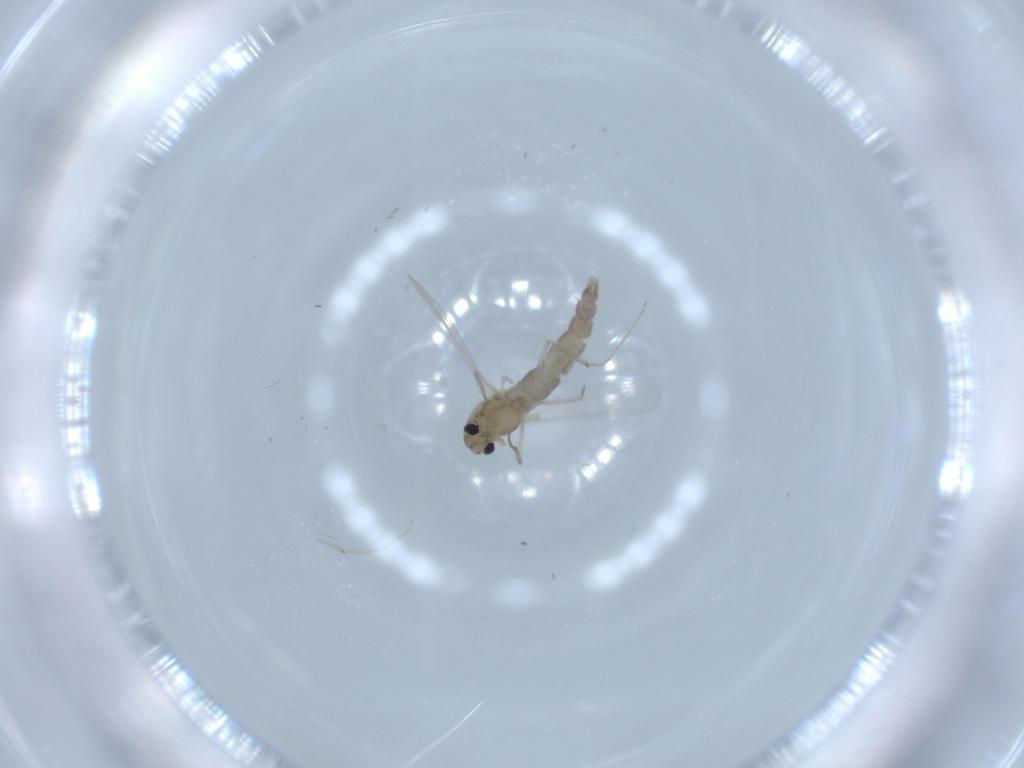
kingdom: Animalia
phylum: Arthropoda
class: Insecta
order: Diptera
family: Chironomidae
